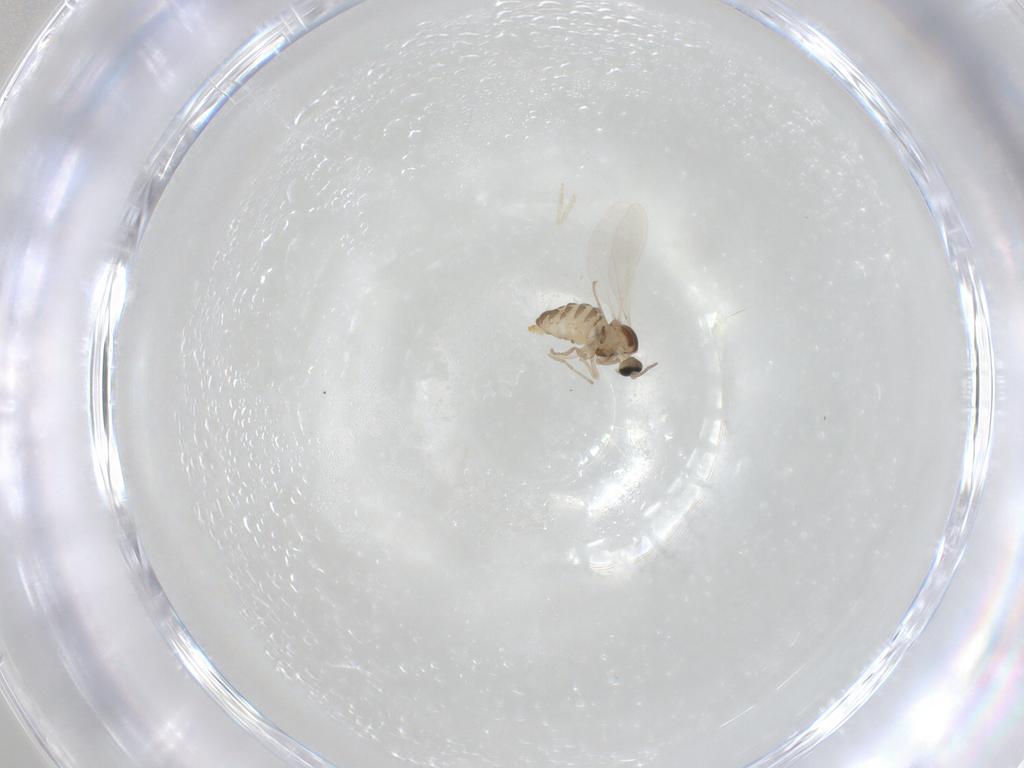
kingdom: Animalia
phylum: Arthropoda
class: Insecta
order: Diptera
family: Cecidomyiidae
